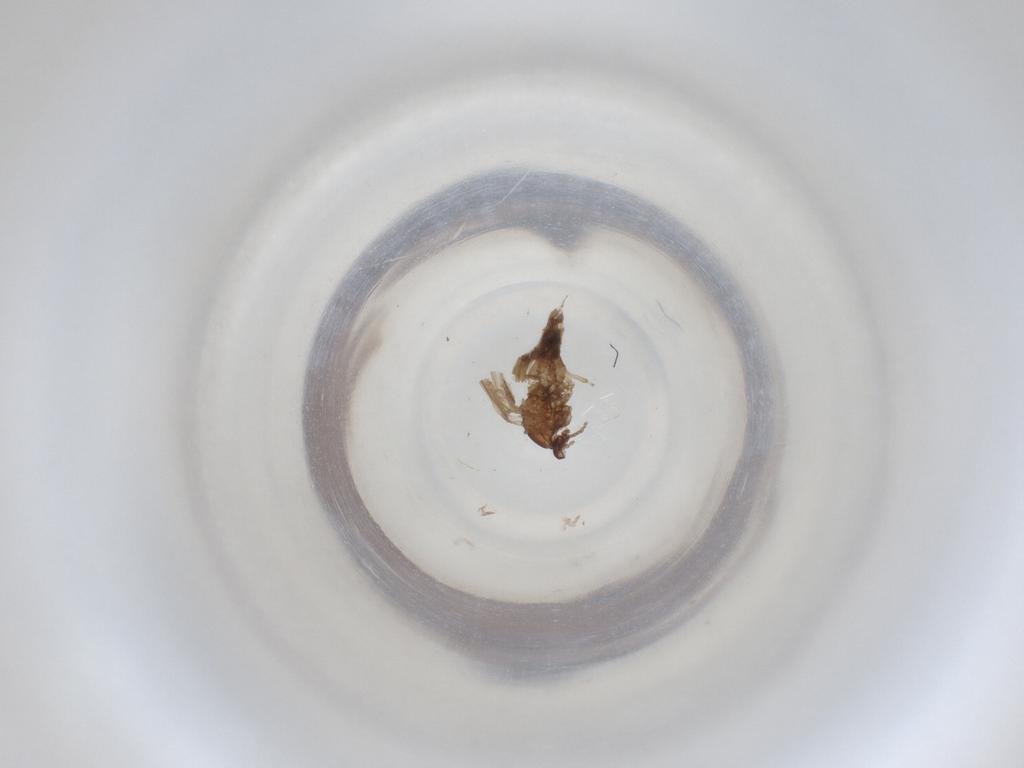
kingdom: Animalia
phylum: Arthropoda
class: Insecta
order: Diptera
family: Cecidomyiidae
